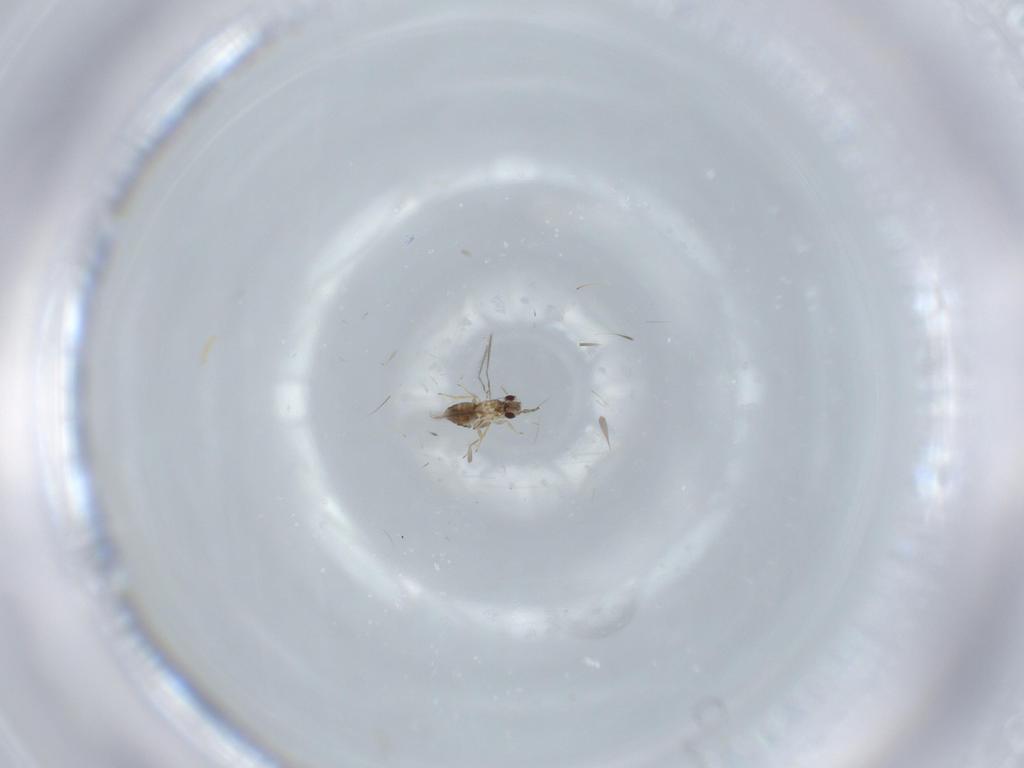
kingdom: Animalia
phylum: Arthropoda
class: Insecta
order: Hymenoptera
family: Mymaridae
